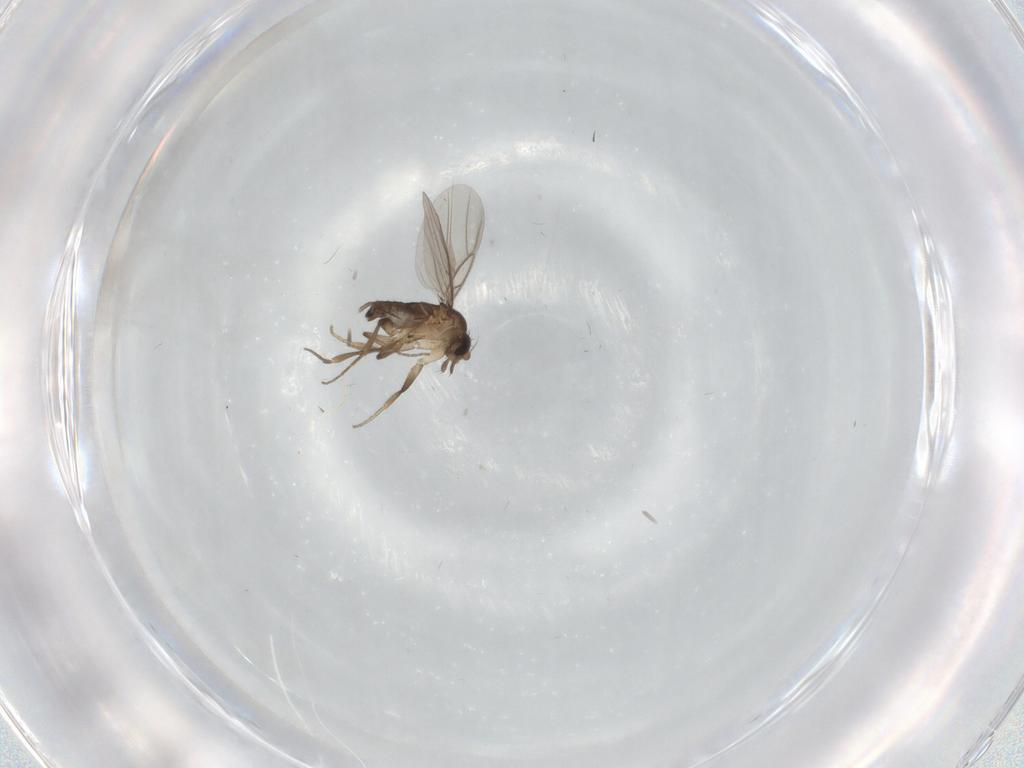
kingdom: Animalia
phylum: Arthropoda
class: Insecta
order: Diptera
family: Phoridae
